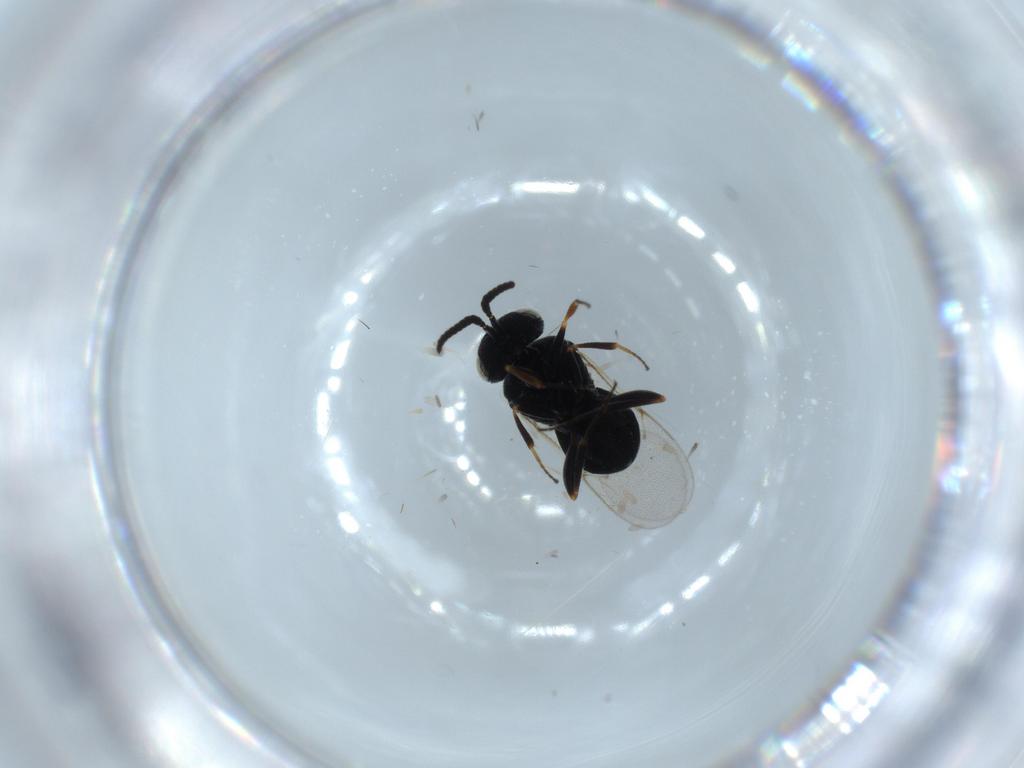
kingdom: Animalia
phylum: Arthropoda
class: Insecta
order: Hymenoptera
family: Scelionidae
